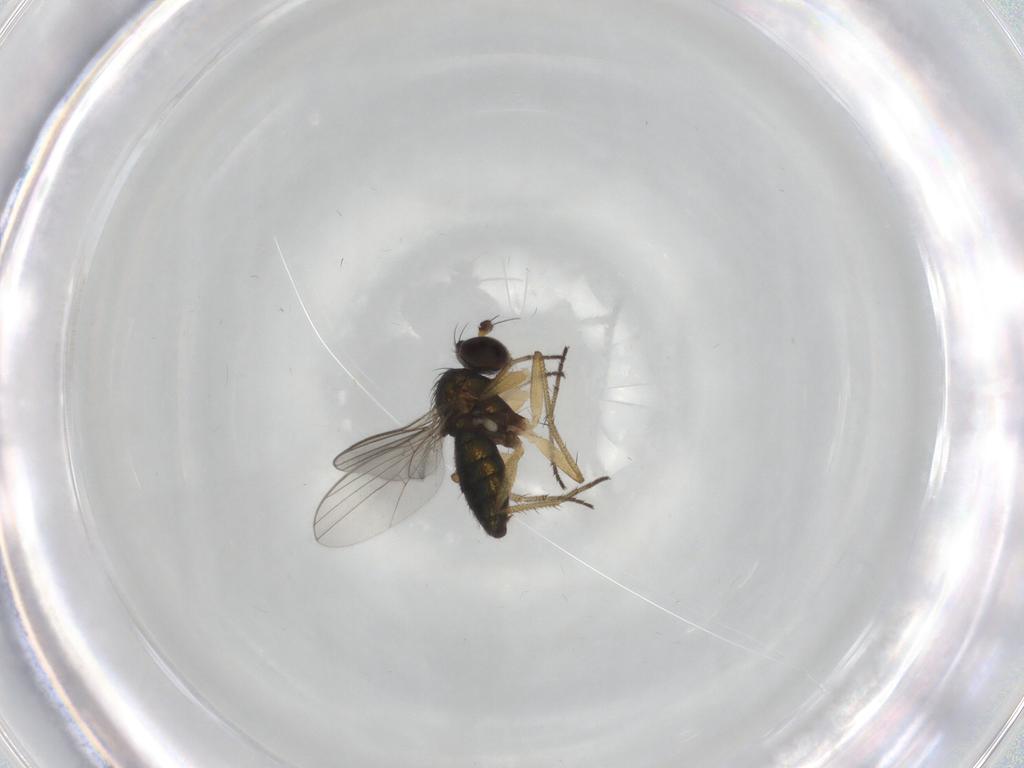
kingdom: Animalia
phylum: Arthropoda
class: Insecta
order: Diptera
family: Dolichopodidae
